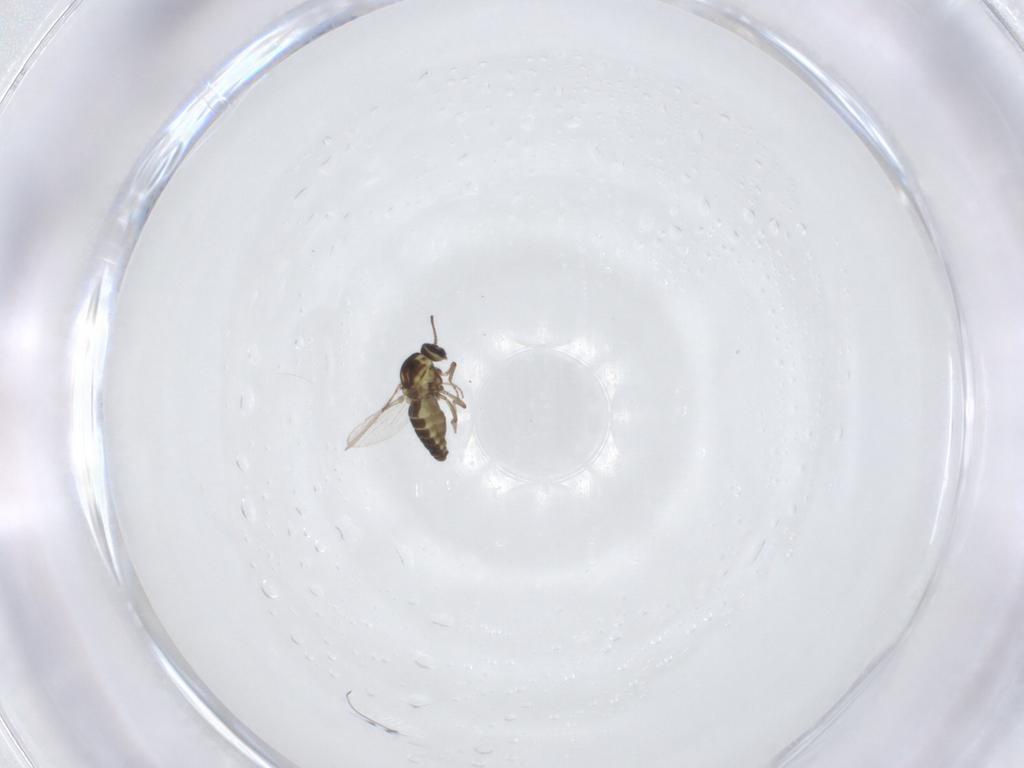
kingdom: Animalia
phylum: Arthropoda
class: Insecta
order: Diptera
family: Ceratopogonidae
